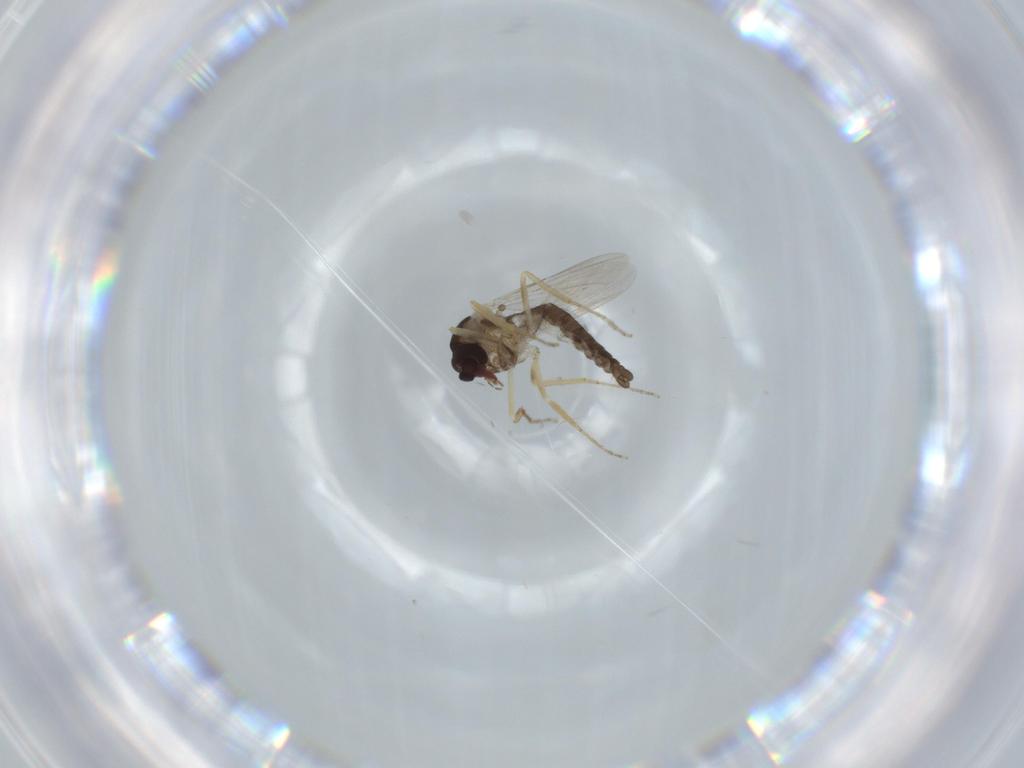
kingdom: Animalia
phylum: Arthropoda
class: Insecta
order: Diptera
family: Ceratopogonidae
